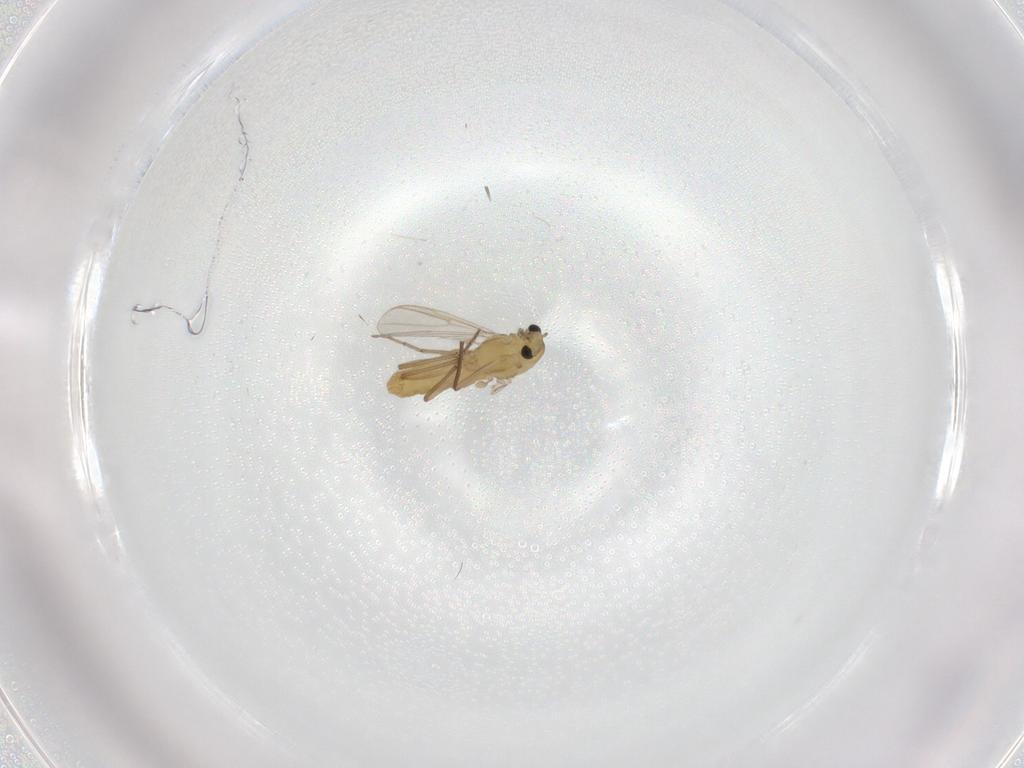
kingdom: Animalia
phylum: Arthropoda
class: Insecta
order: Diptera
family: Chironomidae
